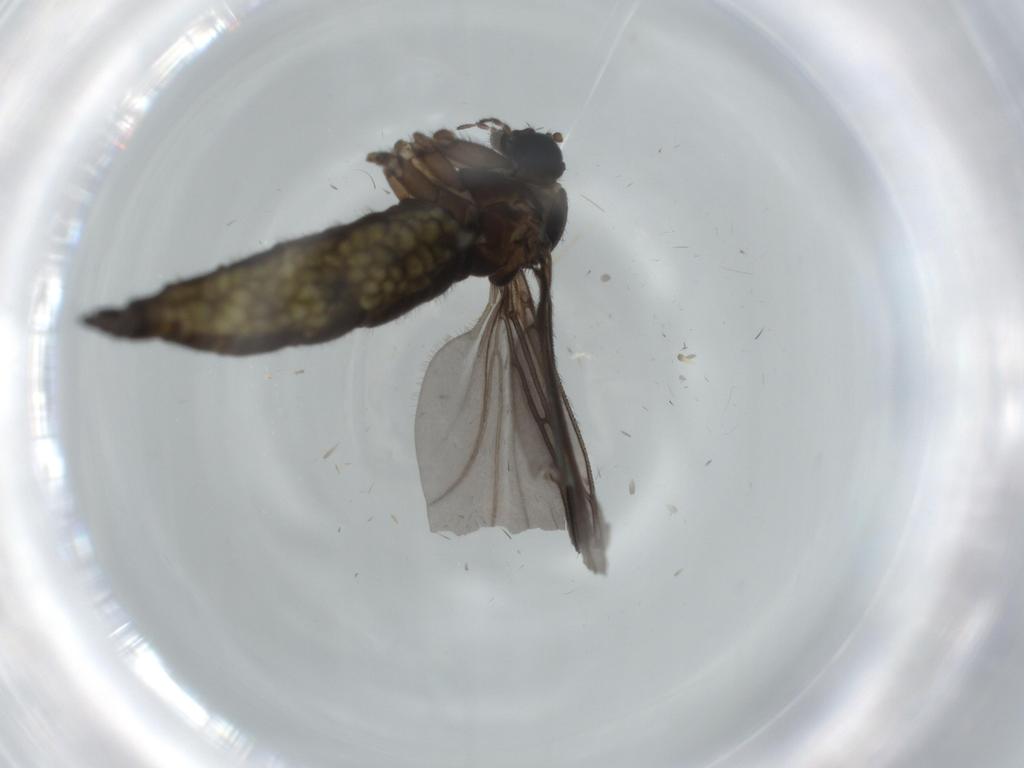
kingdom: Animalia
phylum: Arthropoda
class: Insecta
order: Diptera
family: Sciaridae
